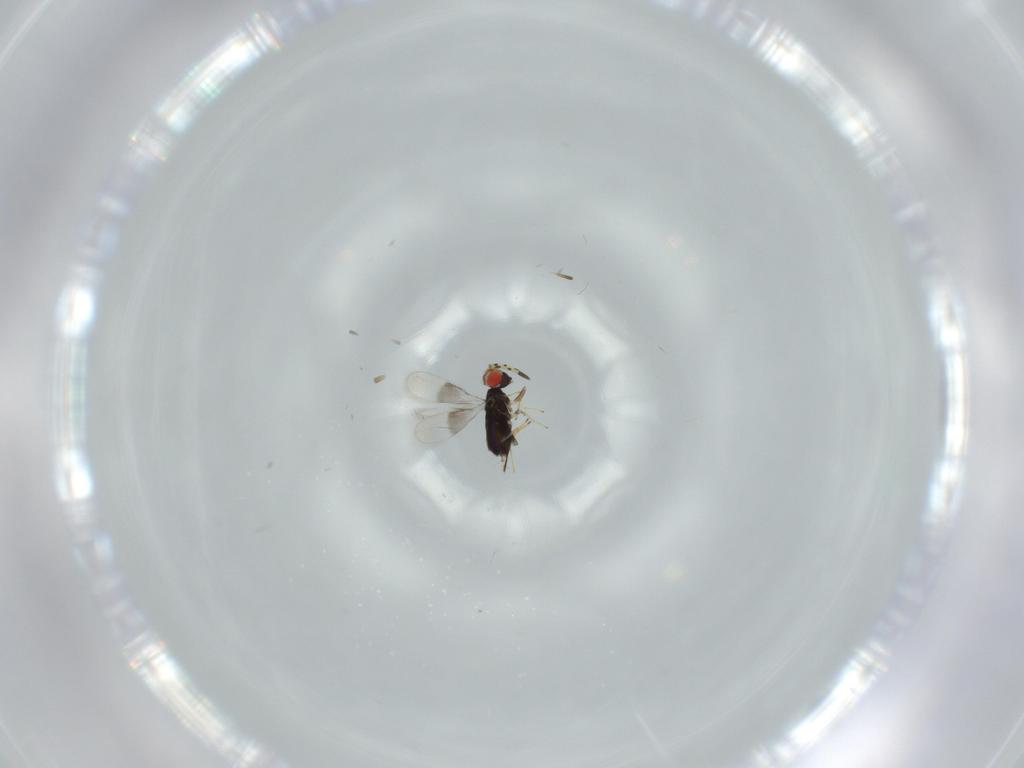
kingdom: Animalia
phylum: Arthropoda
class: Insecta
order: Hymenoptera
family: Azotidae
